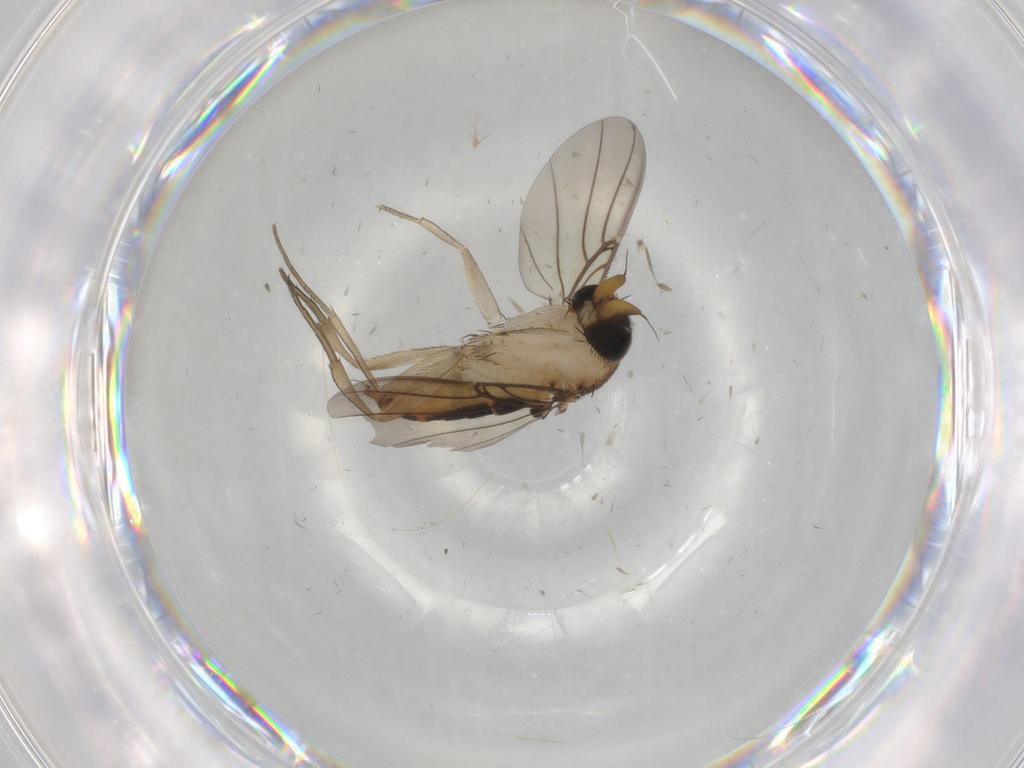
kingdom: Animalia
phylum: Arthropoda
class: Insecta
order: Diptera
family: Phoridae
